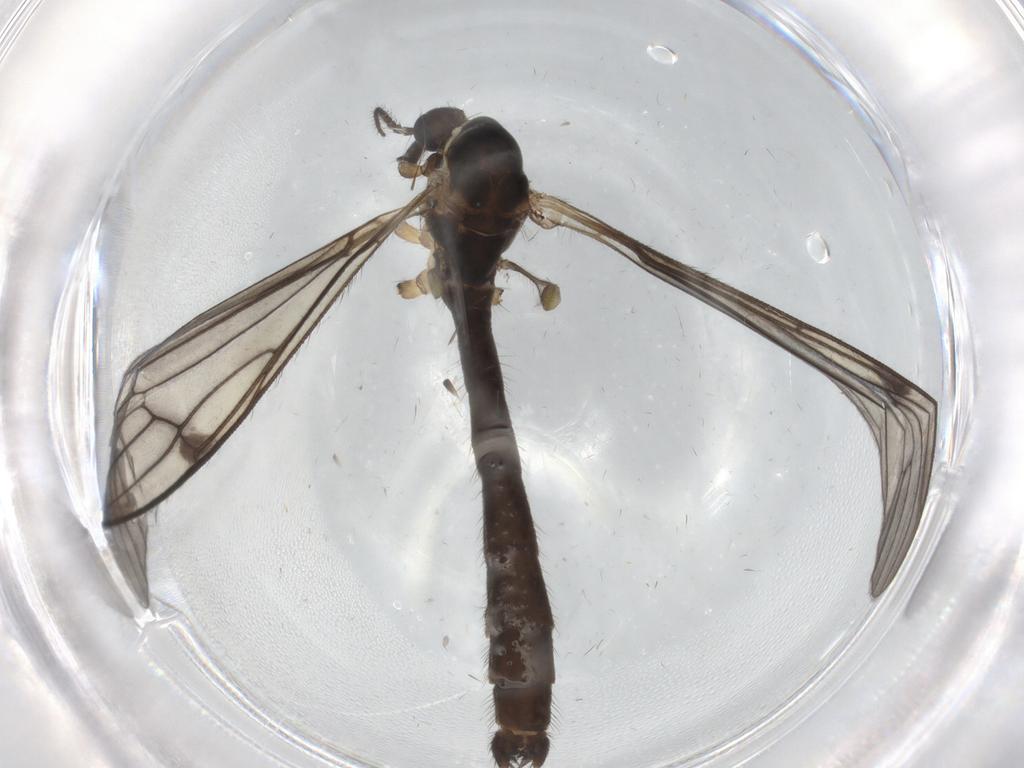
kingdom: Animalia
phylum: Arthropoda
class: Insecta
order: Diptera
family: Limoniidae
